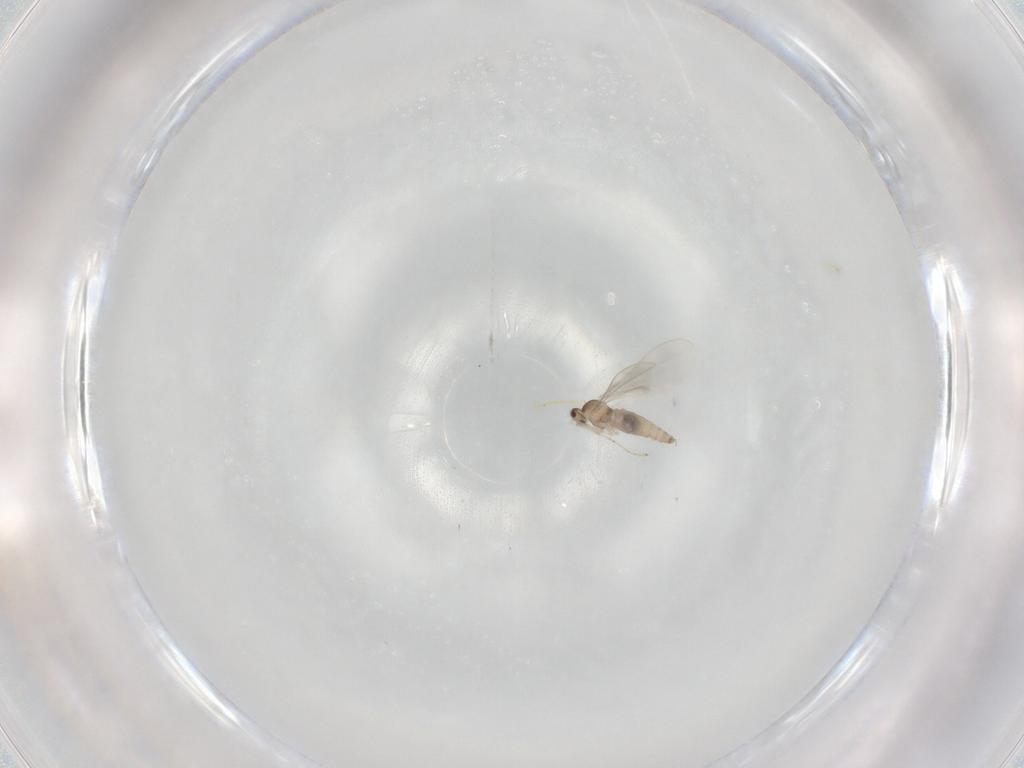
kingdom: Animalia
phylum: Arthropoda
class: Insecta
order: Diptera
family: Cecidomyiidae
